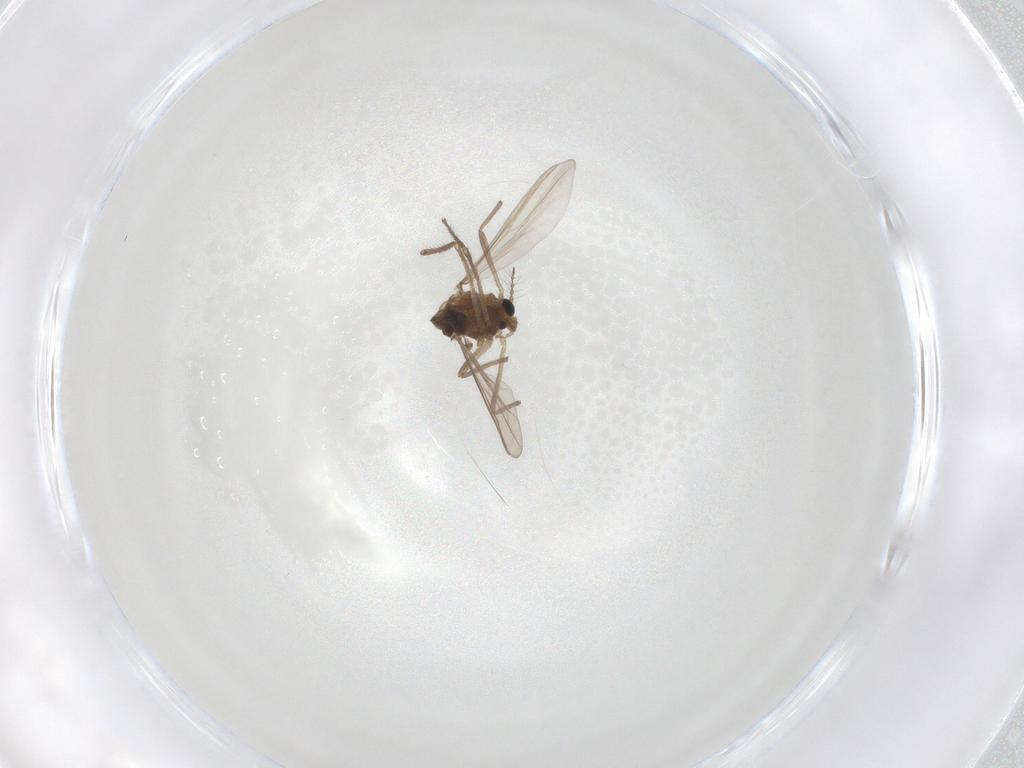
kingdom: Animalia
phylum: Arthropoda
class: Insecta
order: Diptera
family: Chironomidae
